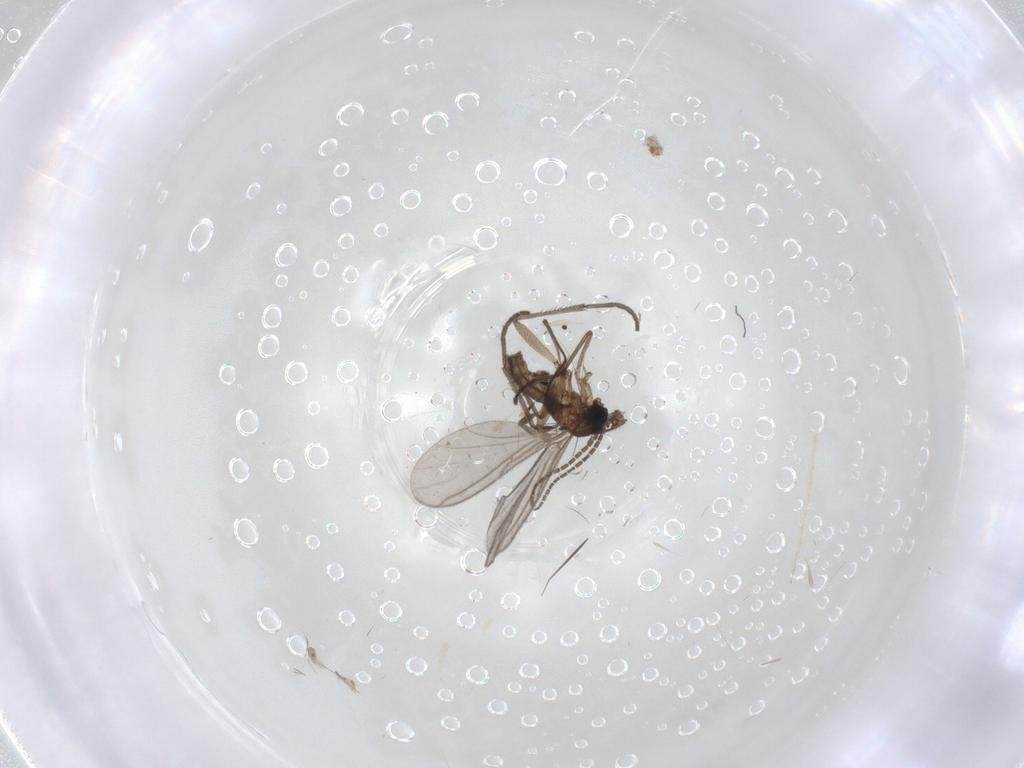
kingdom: Animalia
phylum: Arthropoda
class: Insecta
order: Diptera
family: Sciaridae
